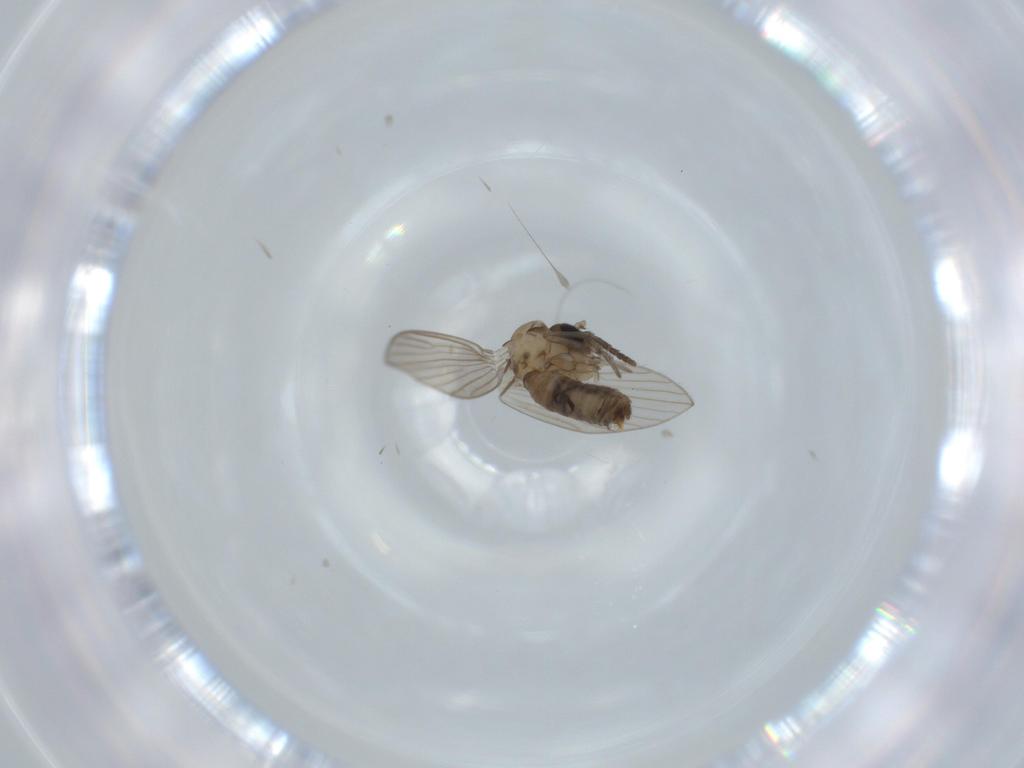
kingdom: Animalia
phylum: Arthropoda
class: Insecta
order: Diptera
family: Psychodidae
